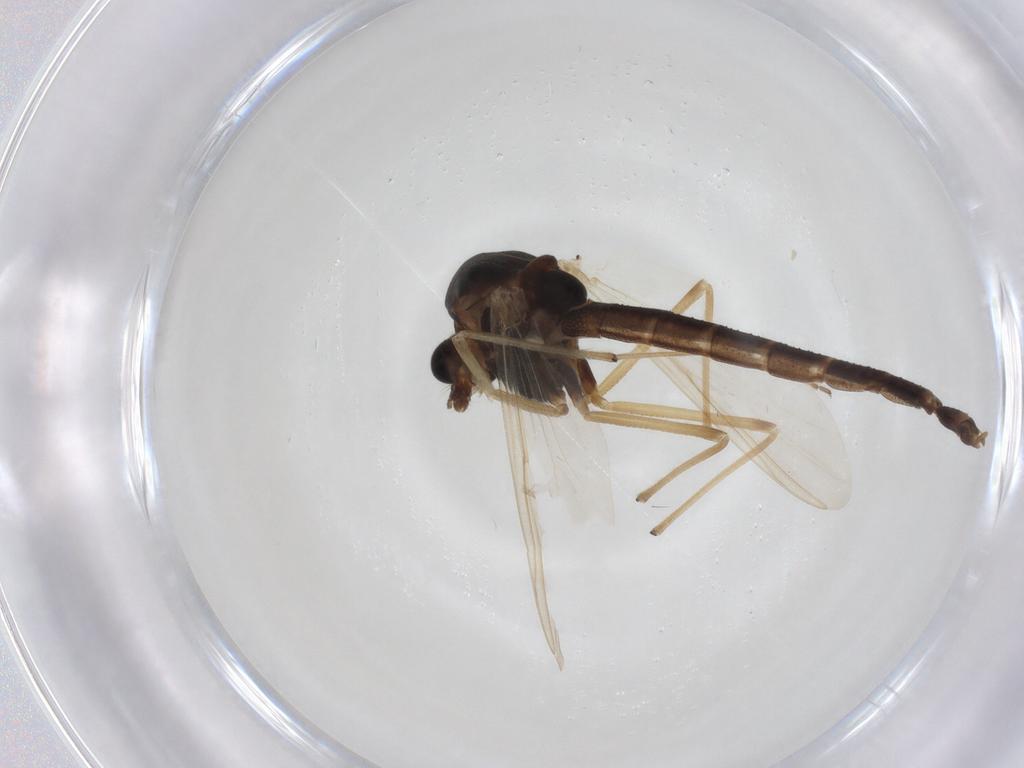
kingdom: Animalia
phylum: Arthropoda
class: Insecta
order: Diptera
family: Chironomidae
